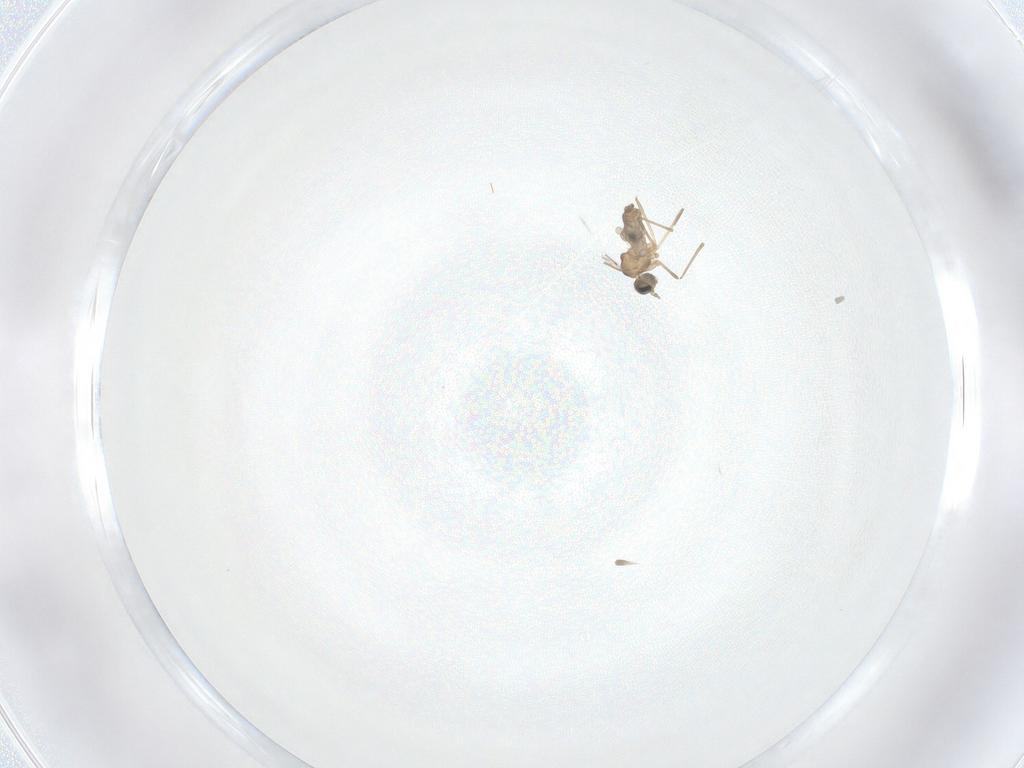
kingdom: Animalia
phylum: Arthropoda
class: Insecta
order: Diptera
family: Cecidomyiidae
